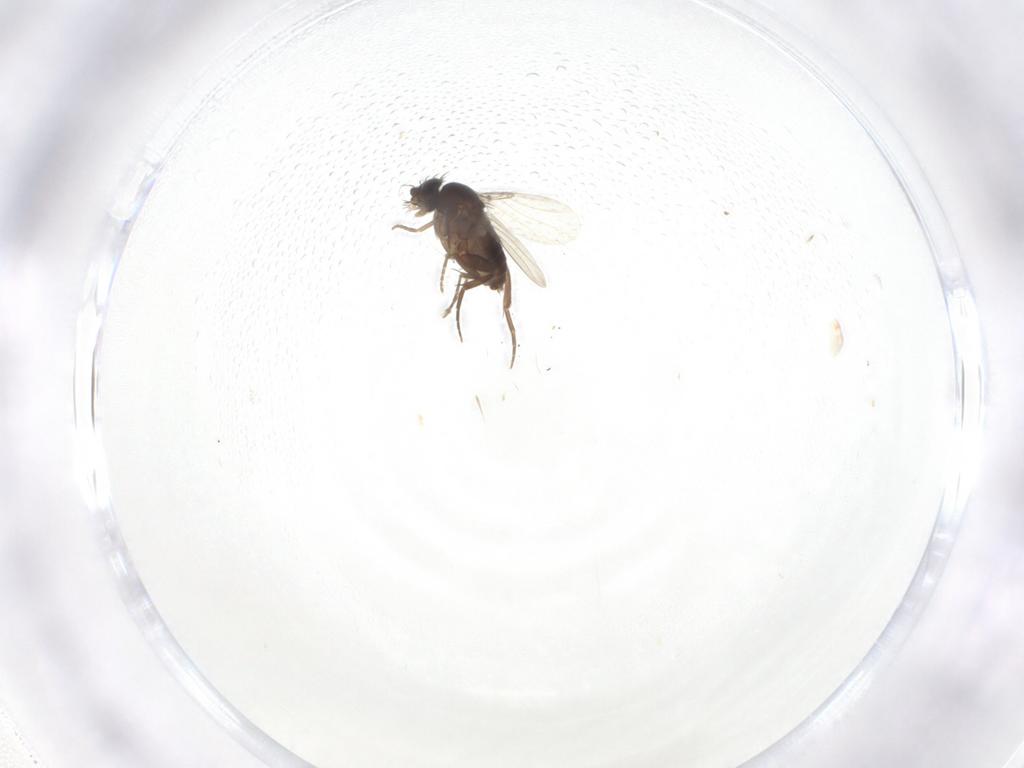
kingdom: Animalia
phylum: Arthropoda
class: Insecta
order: Diptera
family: Phoridae
